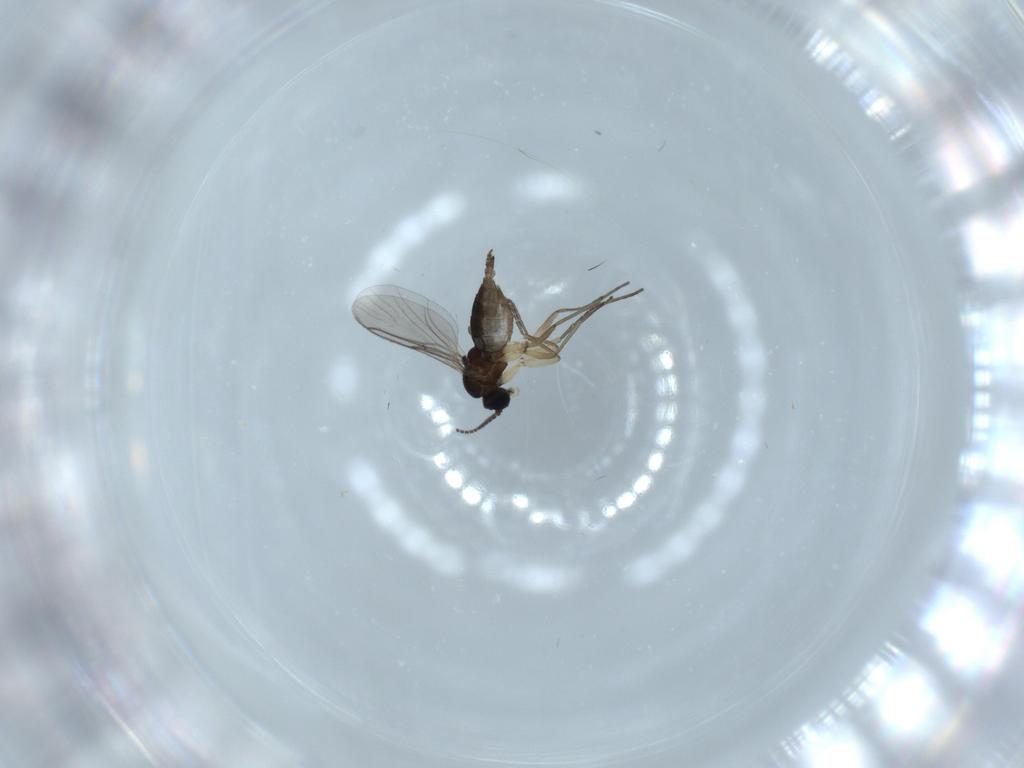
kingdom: Animalia
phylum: Arthropoda
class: Insecta
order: Diptera
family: Sciaridae
